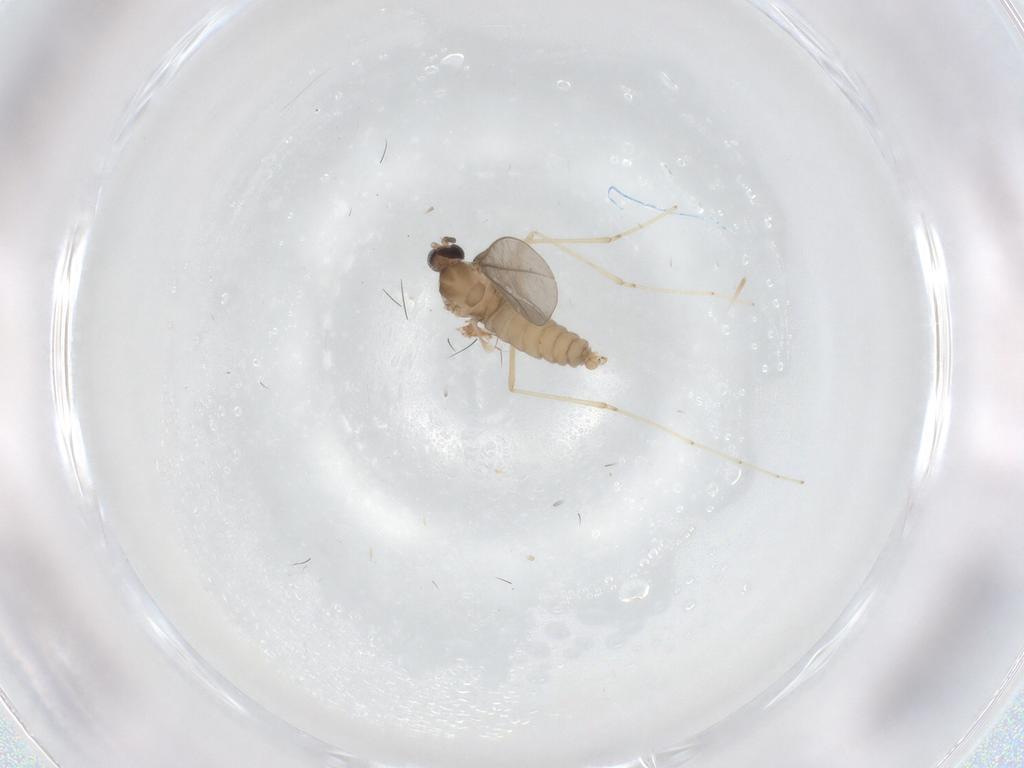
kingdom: Animalia
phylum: Arthropoda
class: Insecta
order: Diptera
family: Cecidomyiidae
